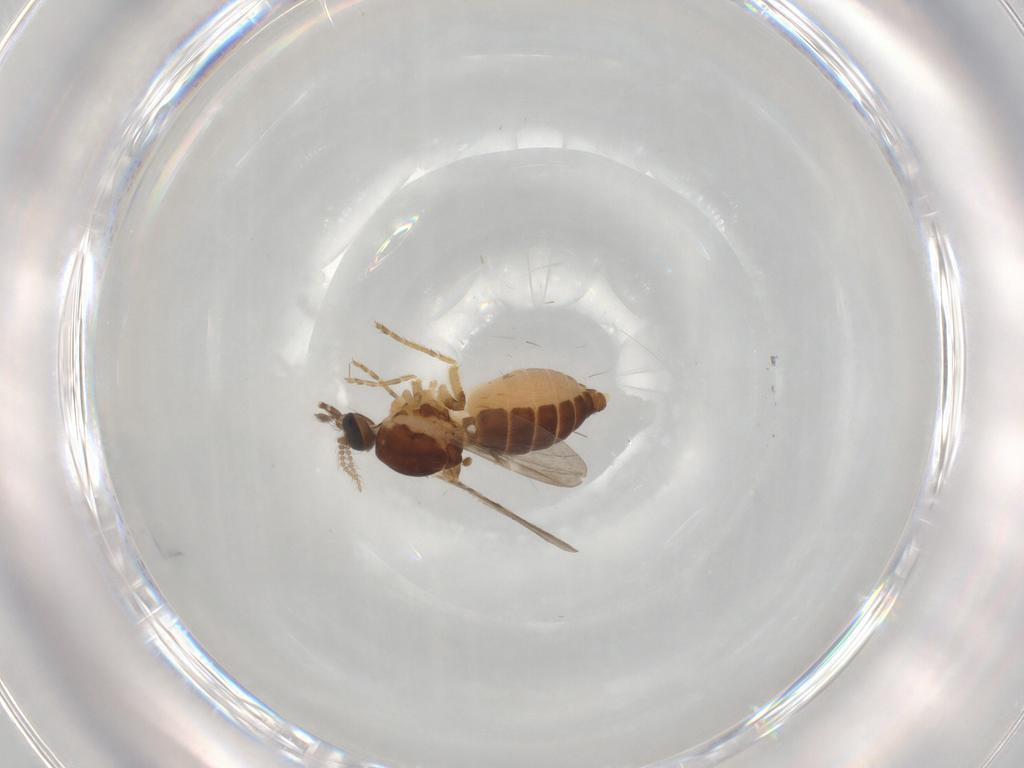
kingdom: Animalia
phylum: Arthropoda
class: Insecta
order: Diptera
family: Ceratopogonidae
